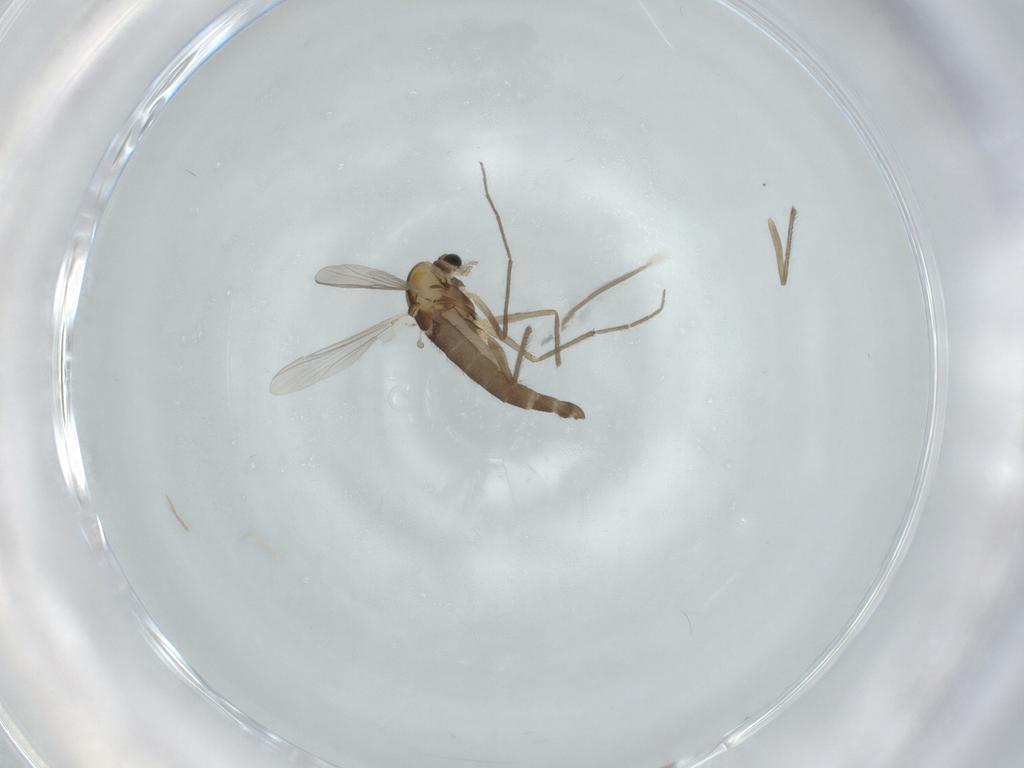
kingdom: Animalia
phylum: Arthropoda
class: Insecta
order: Diptera
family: Chironomidae
